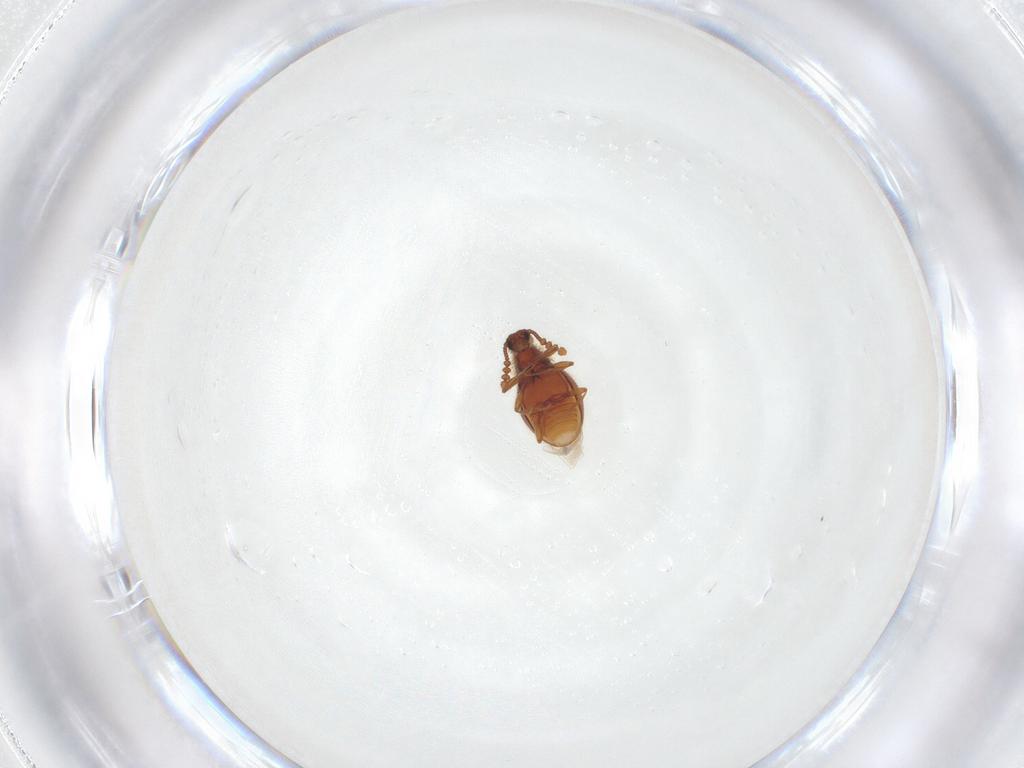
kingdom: Animalia
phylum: Arthropoda
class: Insecta
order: Coleoptera
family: Staphylinidae
